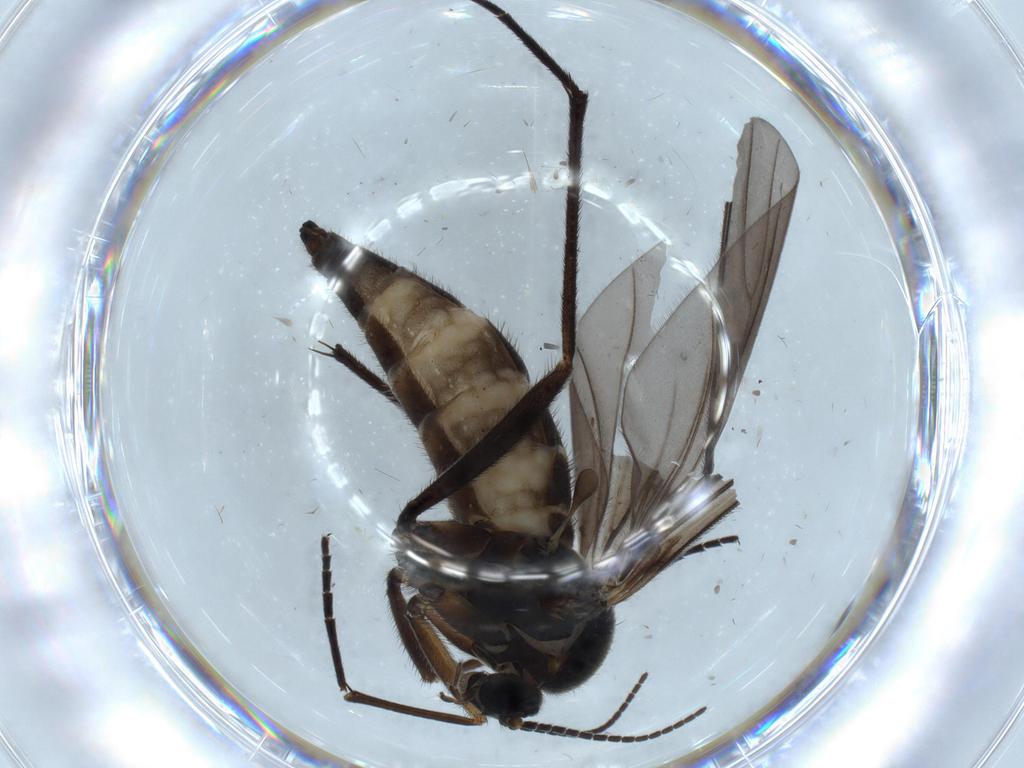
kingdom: Animalia
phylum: Arthropoda
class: Insecta
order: Diptera
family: Sciaridae
